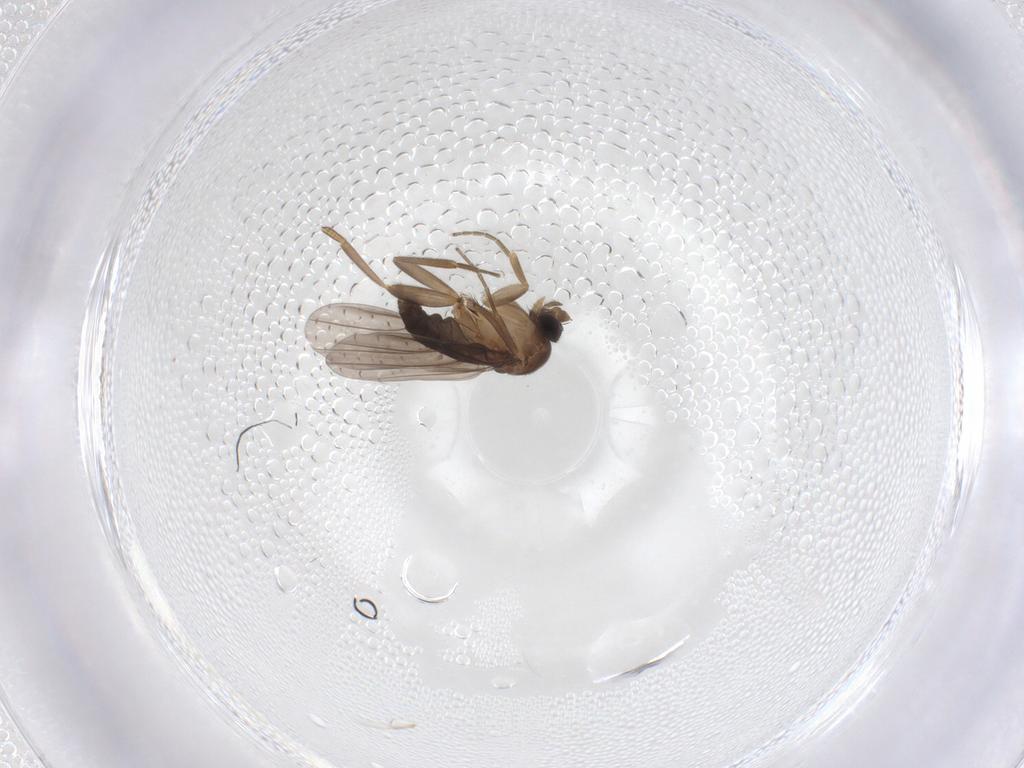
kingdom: Animalia
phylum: Arthropoda
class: Insecta
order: Diptera
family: Phoridae
